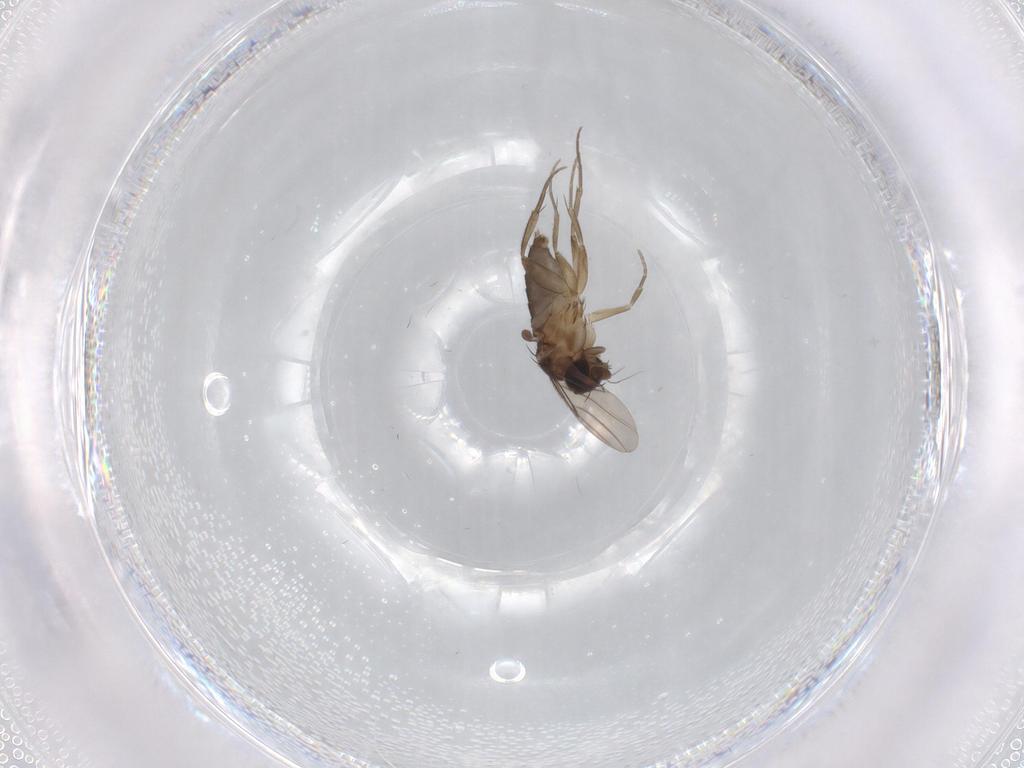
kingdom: Animalia
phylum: Arthropoda
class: Insecta
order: Diptera
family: Phoridae
